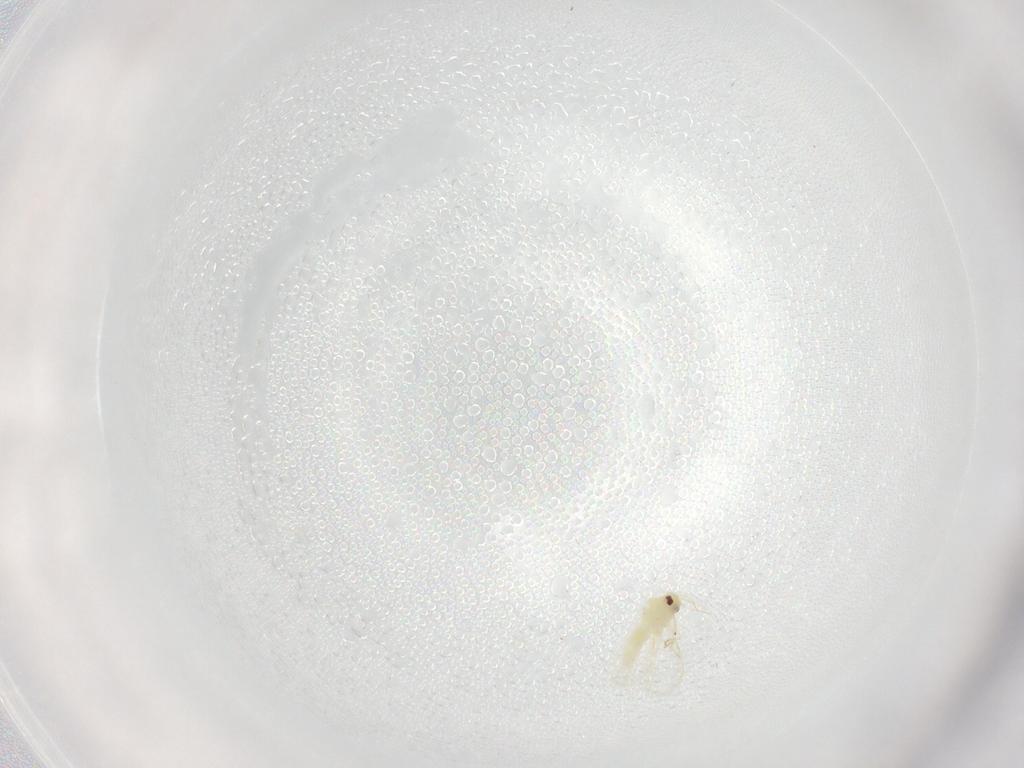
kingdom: Animalia
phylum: Arthropoda
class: Insecta
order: Hemiptera
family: Aleyrodidae
